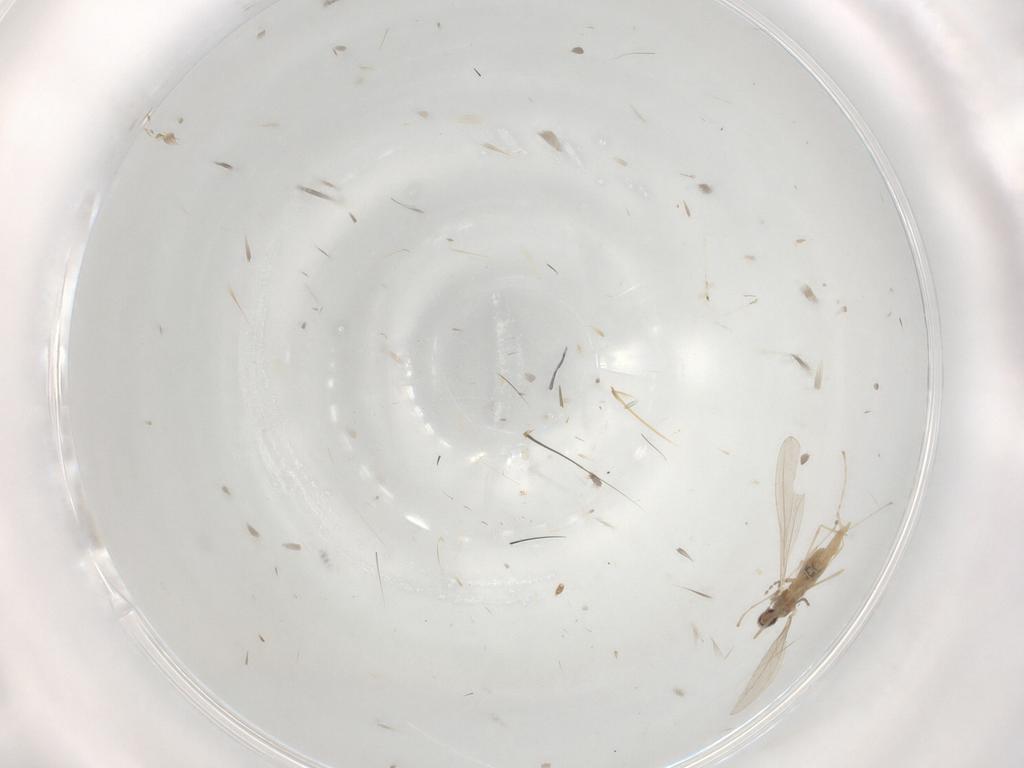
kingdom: Animalia
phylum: Arthropoda
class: Insecta
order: Diptera
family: Cecidomyiidae
